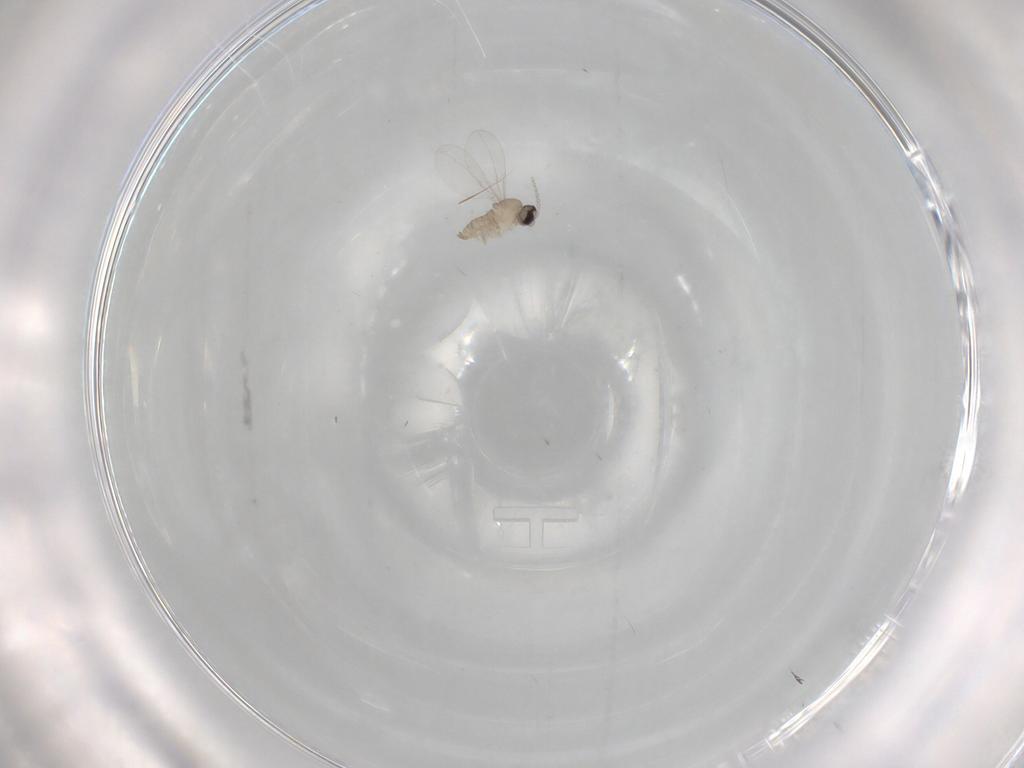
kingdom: Animalia
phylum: Arthropoda
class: Insecta
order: Diptera
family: Cecidomyiidae
